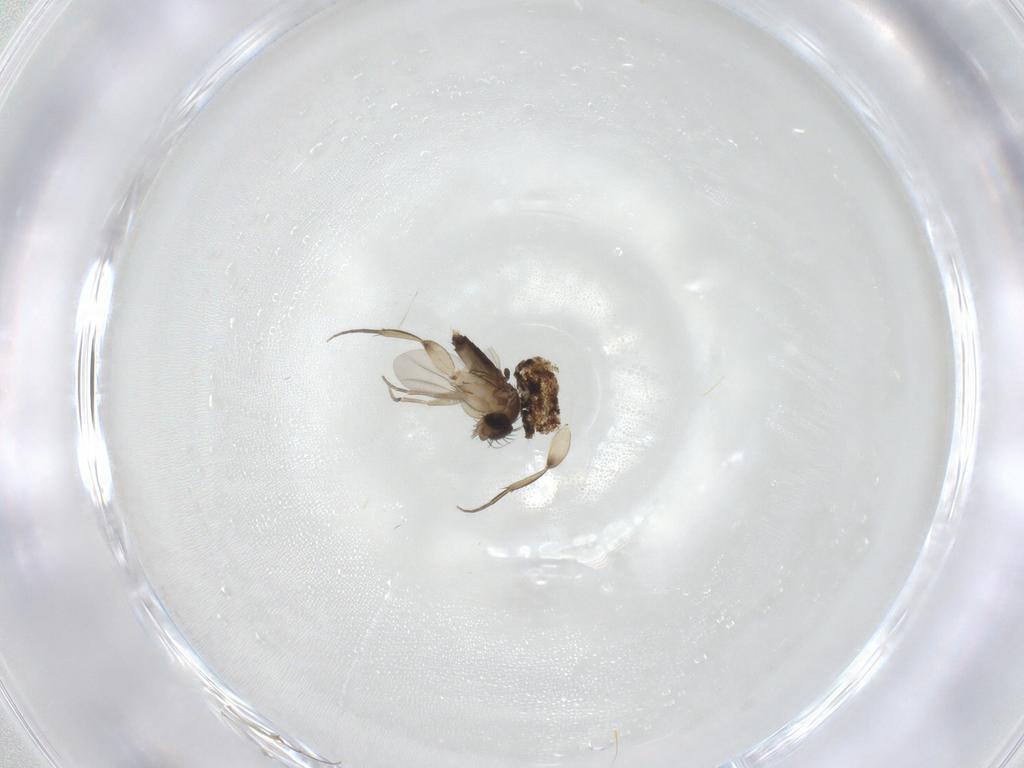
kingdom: Animalia
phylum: Arthropoda
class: Insecta
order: Diptera
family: Phoridae
